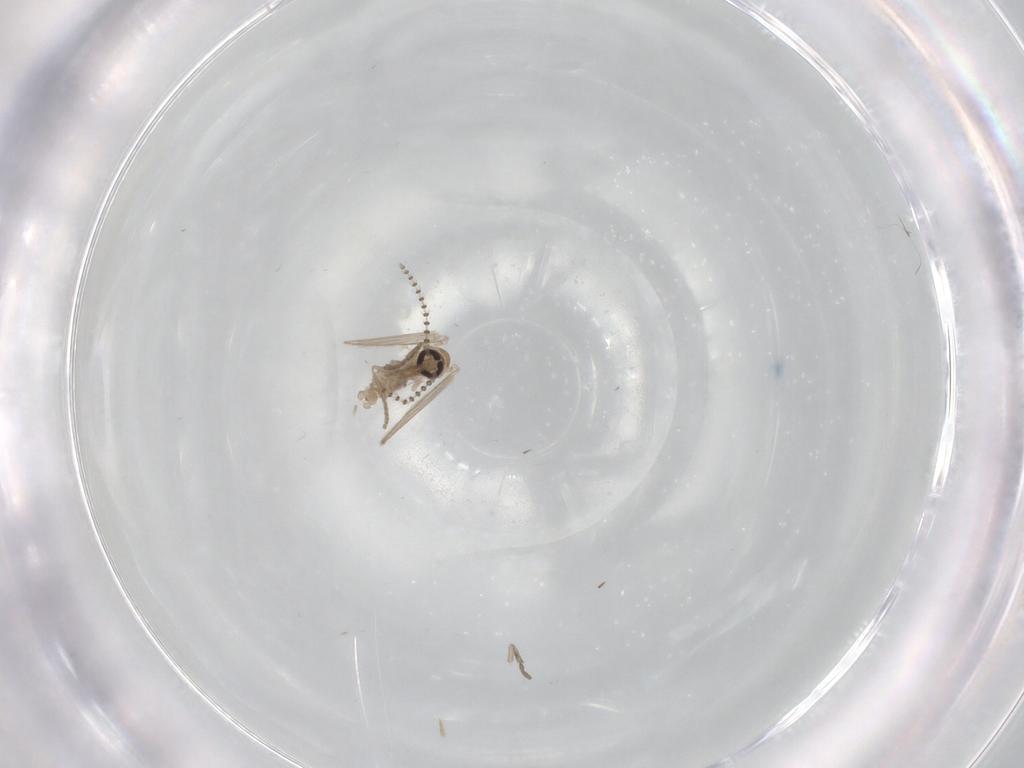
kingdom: Animalia
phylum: Arthropoda
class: Insecta
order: Diptera
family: Psychodidae
